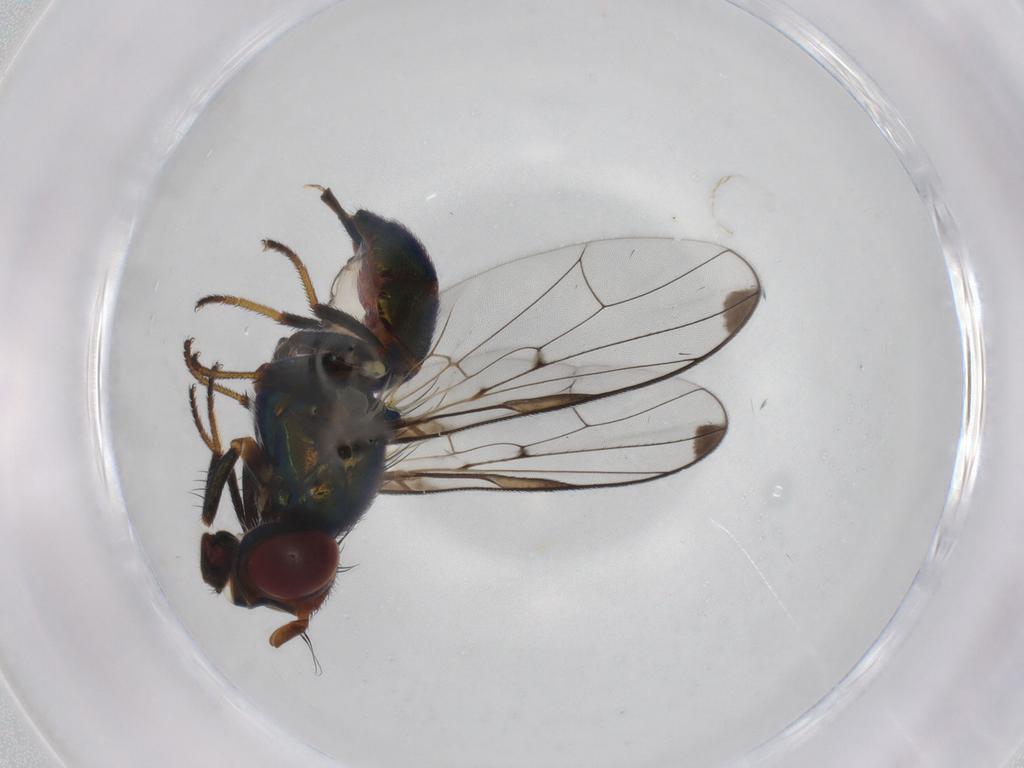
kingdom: Animalia
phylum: Arthropoda
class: Insecta
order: Diptera
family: Platystomatidae
